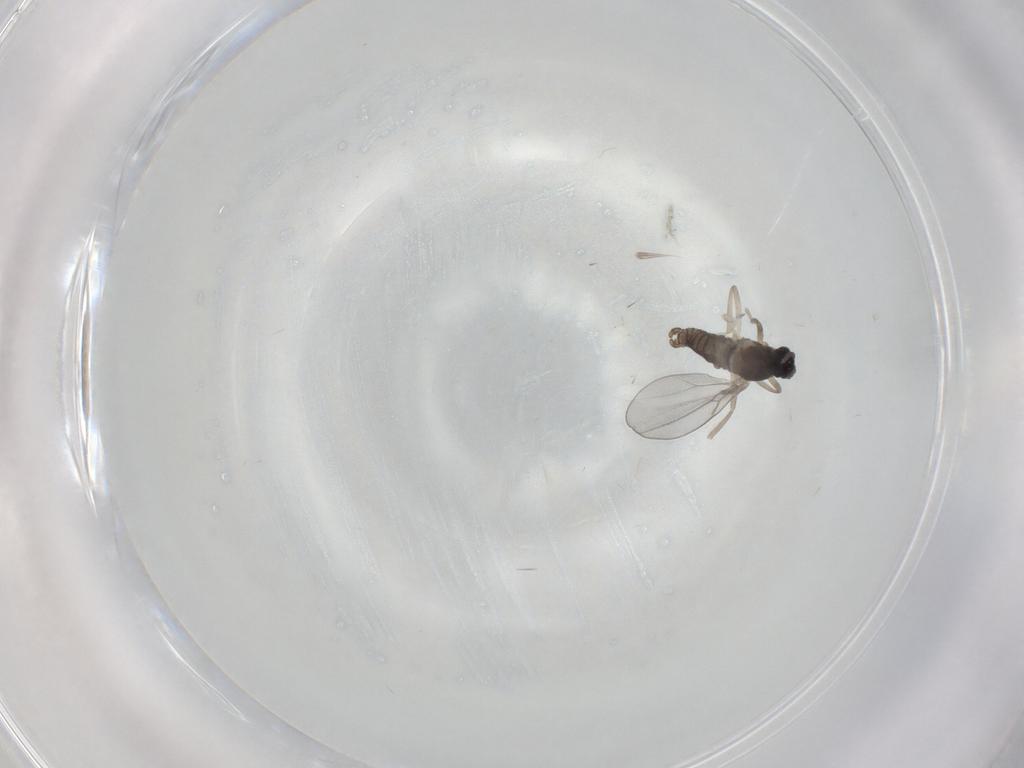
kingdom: Animalia
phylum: Arthropoda
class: Insecta
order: Diptera
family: Cecidomyiidae
